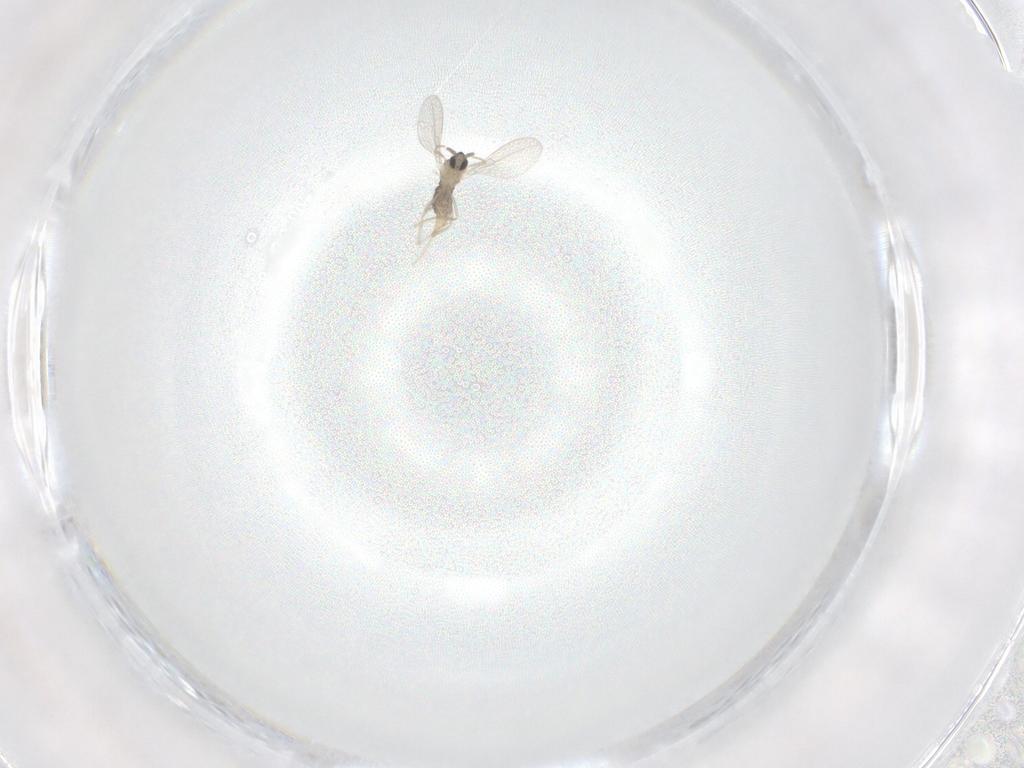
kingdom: Animalia
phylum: Arthropoda
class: Insecta
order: Diptera
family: Cecidomyiidae
